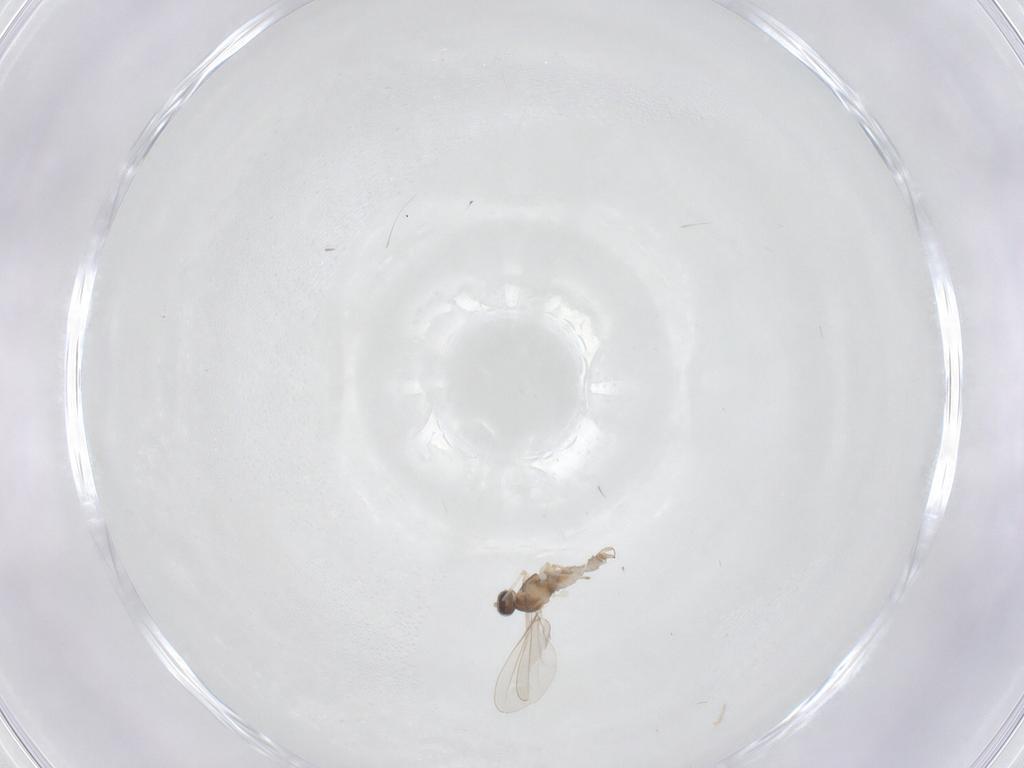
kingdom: Animalia
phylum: Arthropoda
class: Insecta
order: Diptera
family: Cecidomyiidae
